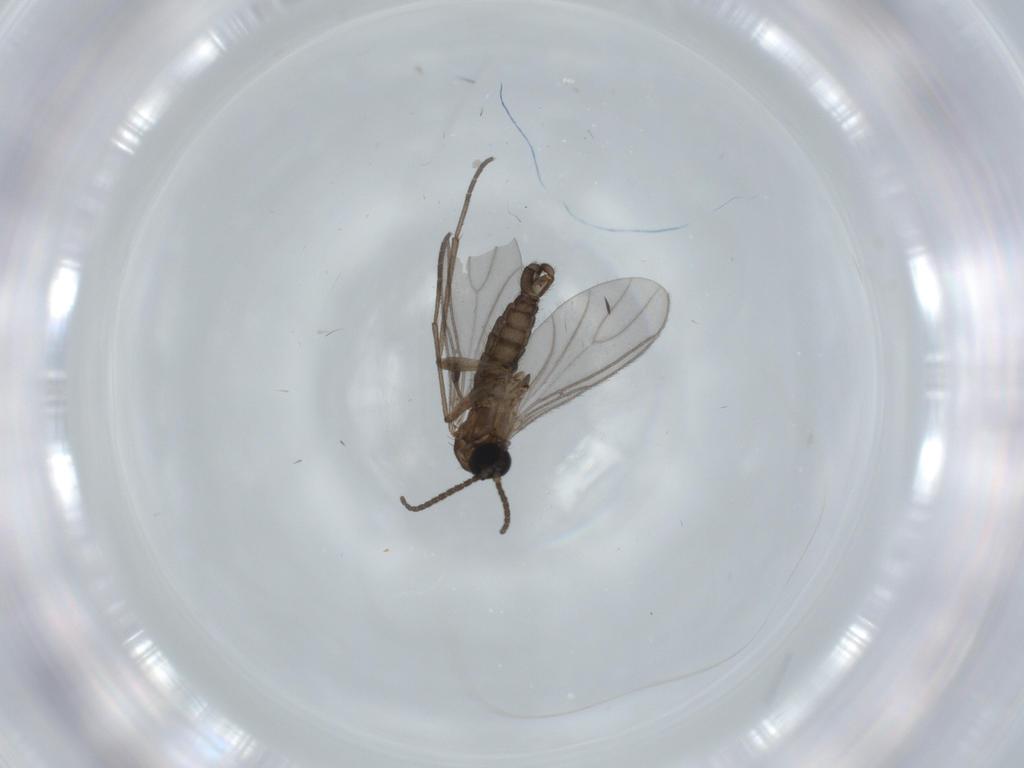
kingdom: Animalia
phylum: Arthropoda
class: Insecta
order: Diptera
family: Sciaridae
